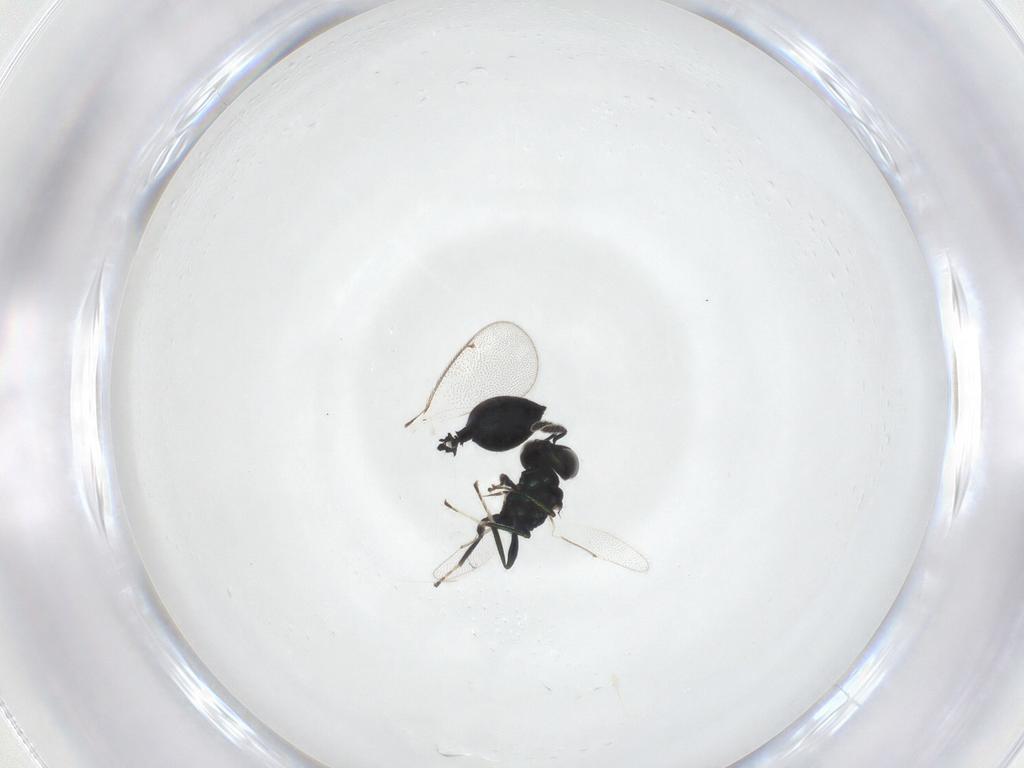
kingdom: Animalia
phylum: Arthropoda
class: Insecta
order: Hymenoptera
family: Eulophidae
